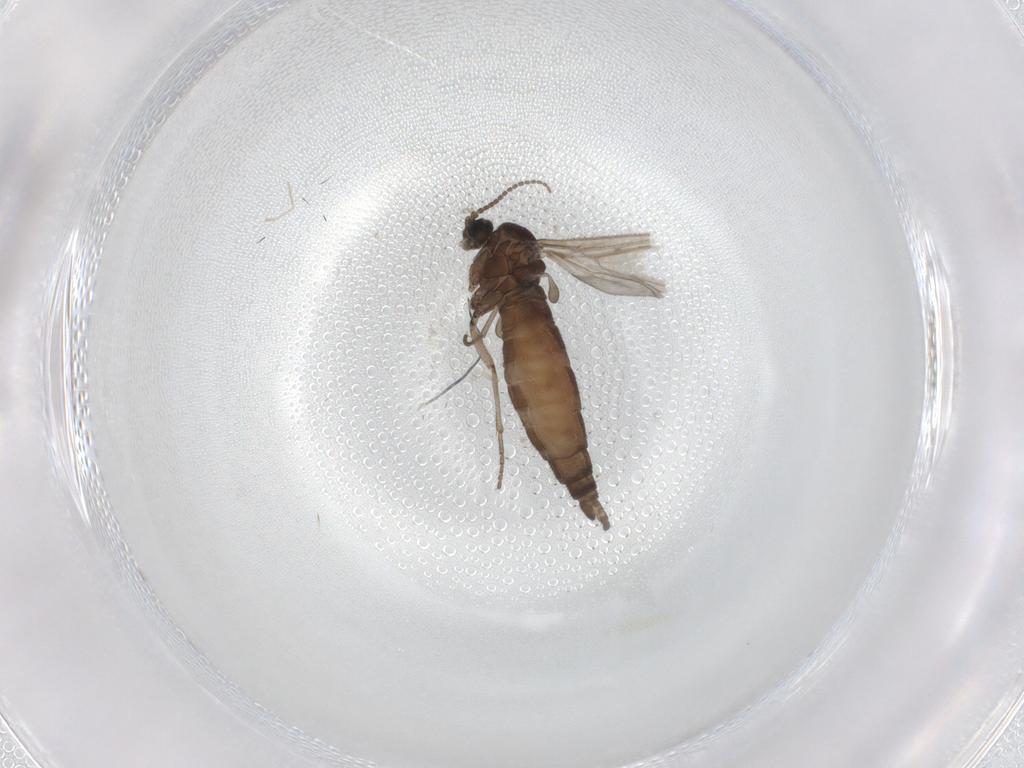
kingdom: Animalia
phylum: Arthropoda
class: Insecta
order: Diptera
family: Sciaridae
